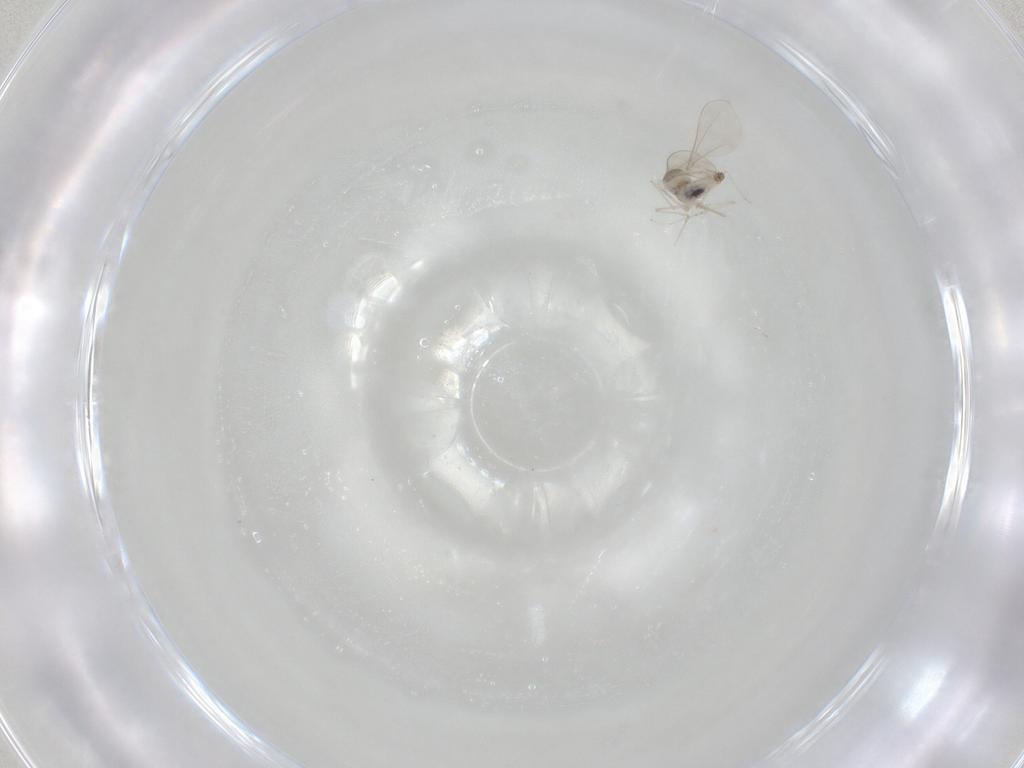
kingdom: Animalia
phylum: Arthropoda
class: Insecta
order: Diptera
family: Cecidomyiidae
